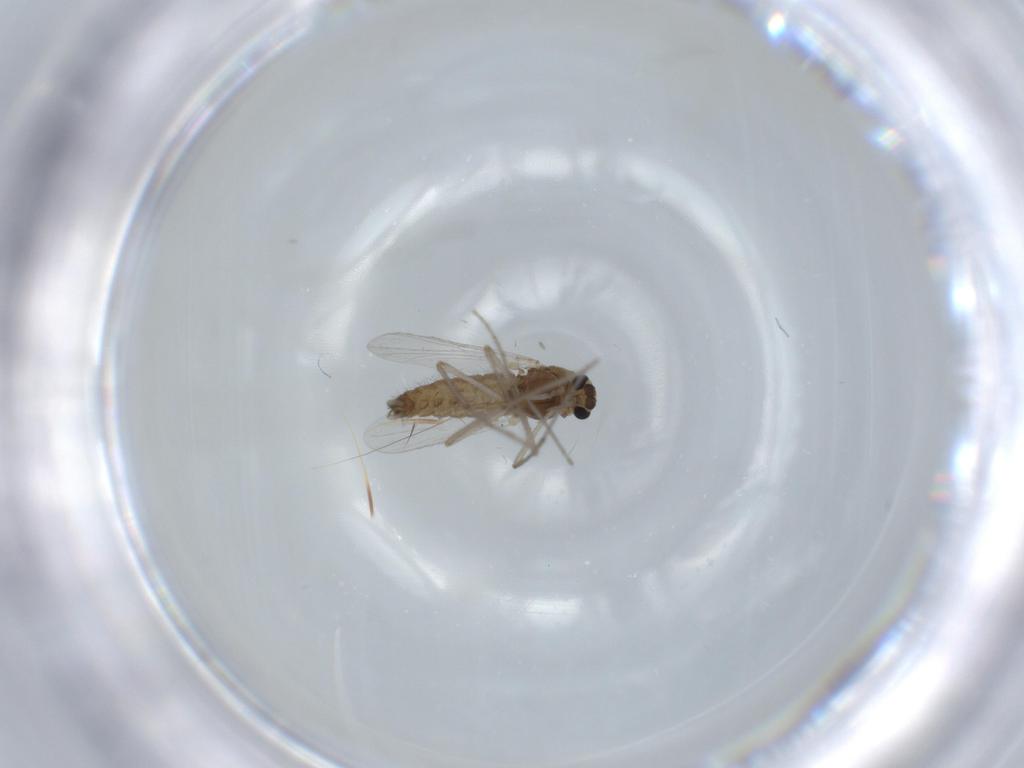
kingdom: Animalia
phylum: Arthropoda
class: Insecta
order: Diptera
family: Chironomidae
